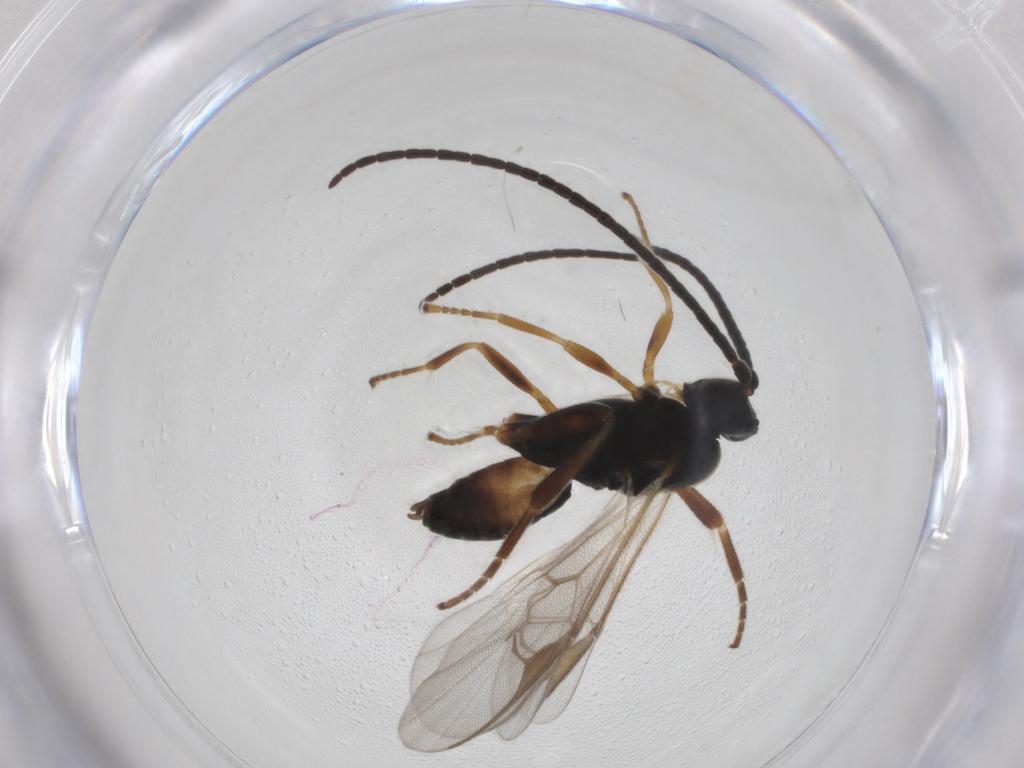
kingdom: Animalia
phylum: Arthropoda
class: Insecta
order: Hymenoptera
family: Braconidae
